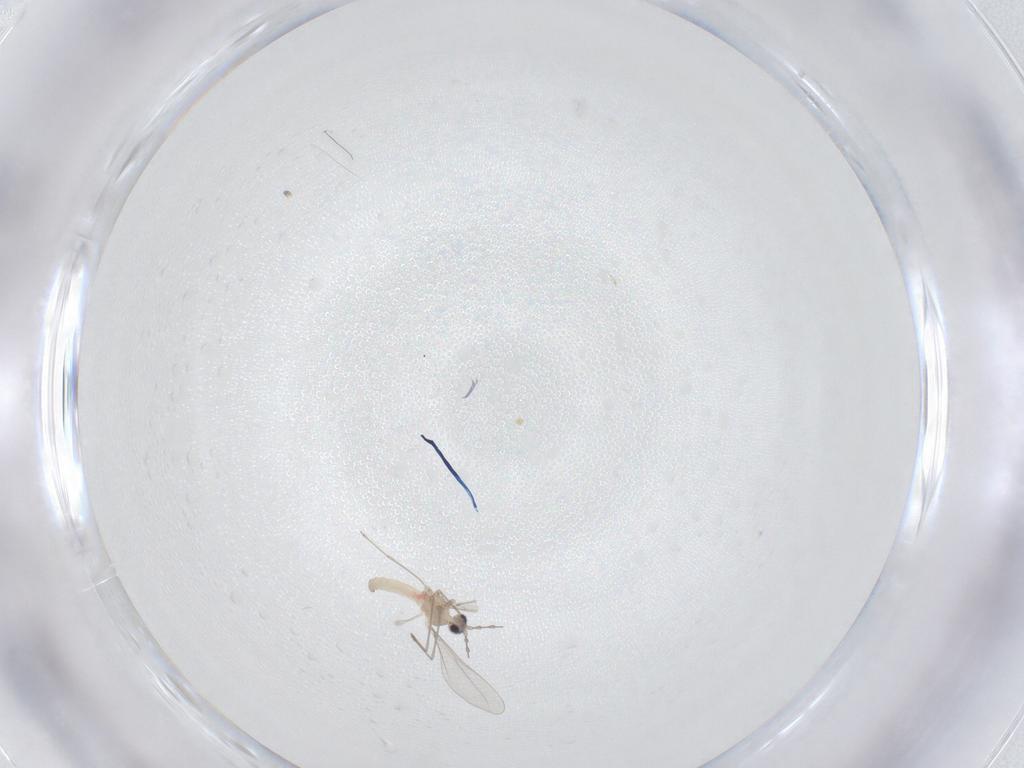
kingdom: Animalia
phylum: Arthropoda
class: Insecta
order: Diptera
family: Cecidomyiidae
